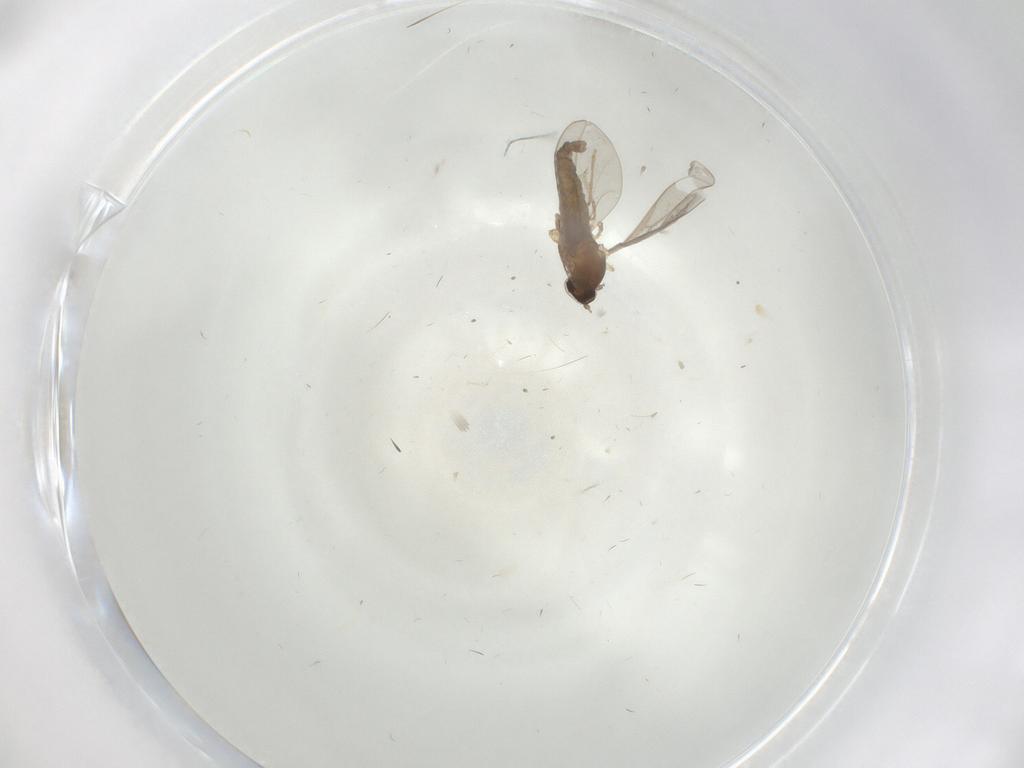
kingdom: Animalia
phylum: Arthropoda
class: Insecta
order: Diptera
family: Cecidomyiidae
